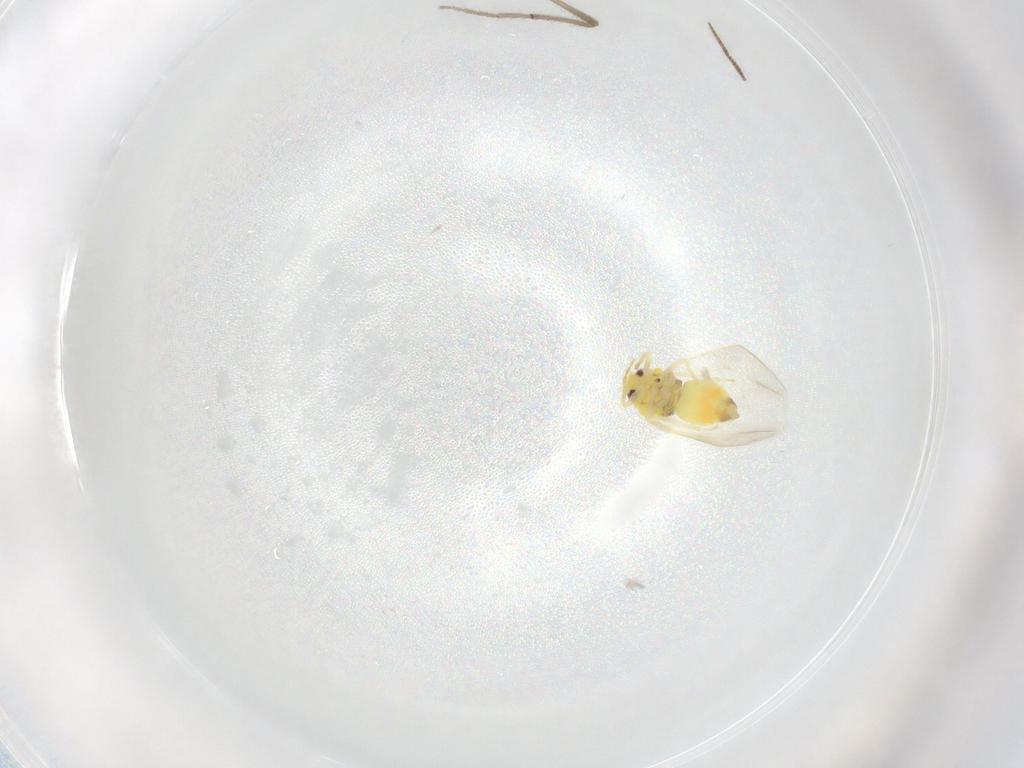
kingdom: Animalia
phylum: Arthropoda
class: Insecta
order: Hemiptera
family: Aleyrodidae
